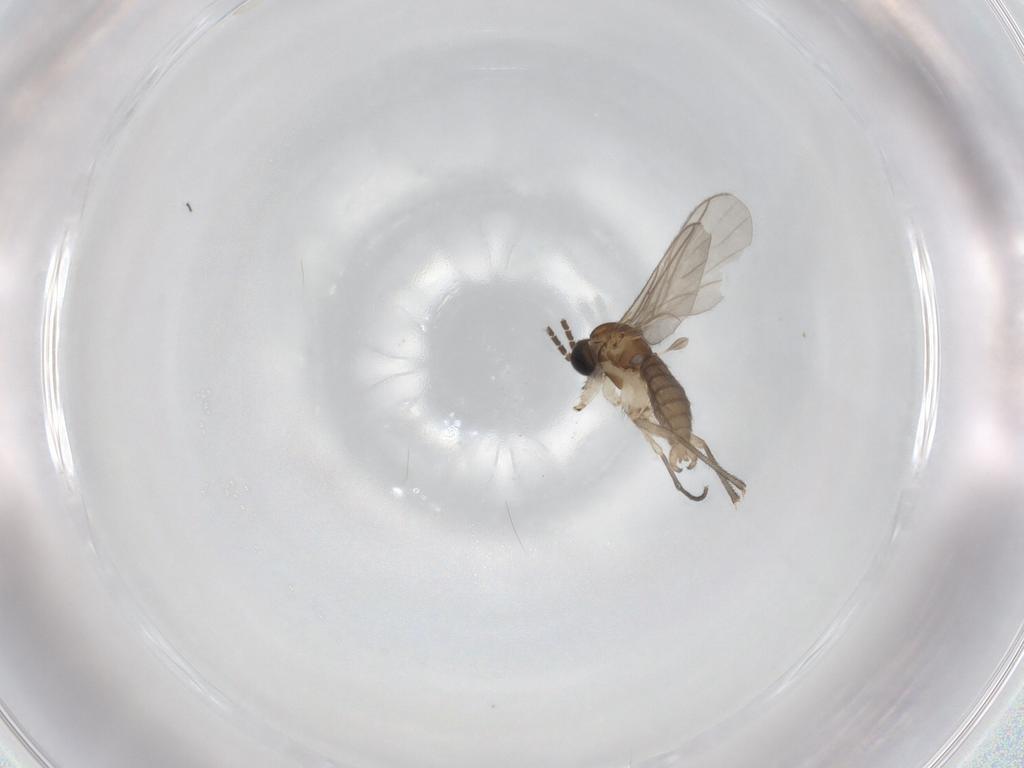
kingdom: Animalia
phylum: Arthropoda
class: Insecta
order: Diptera
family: Sciaridae
